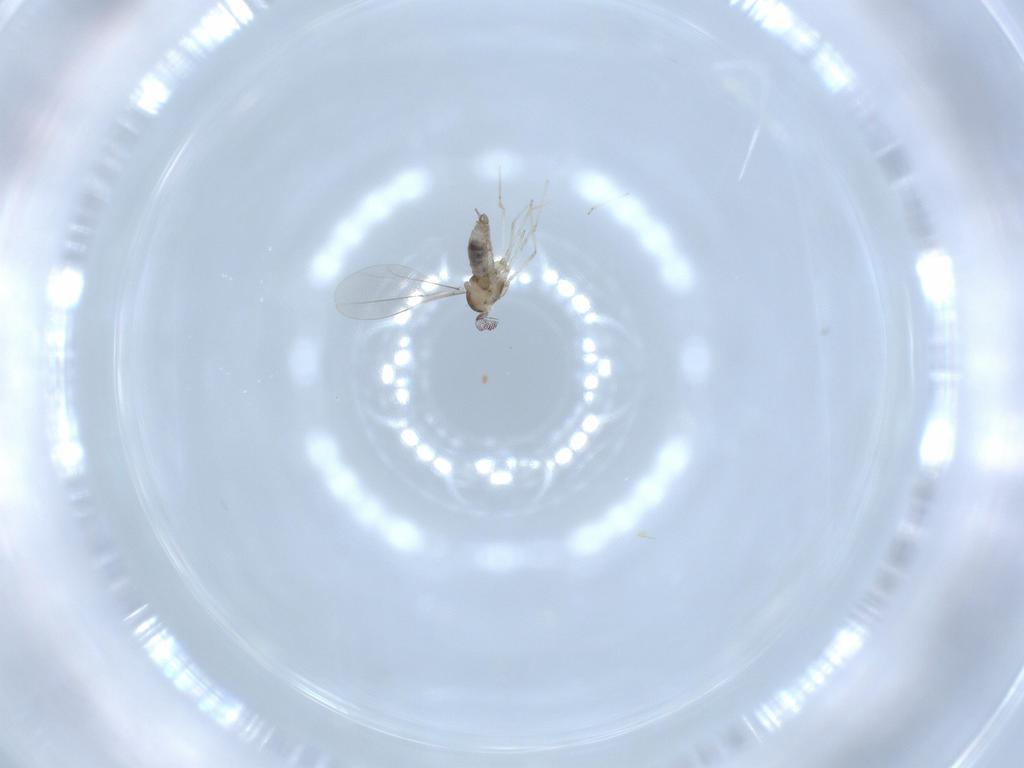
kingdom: Animalia
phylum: Arthropoda
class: Insecta
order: Diptera
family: Cecidomyiidae
